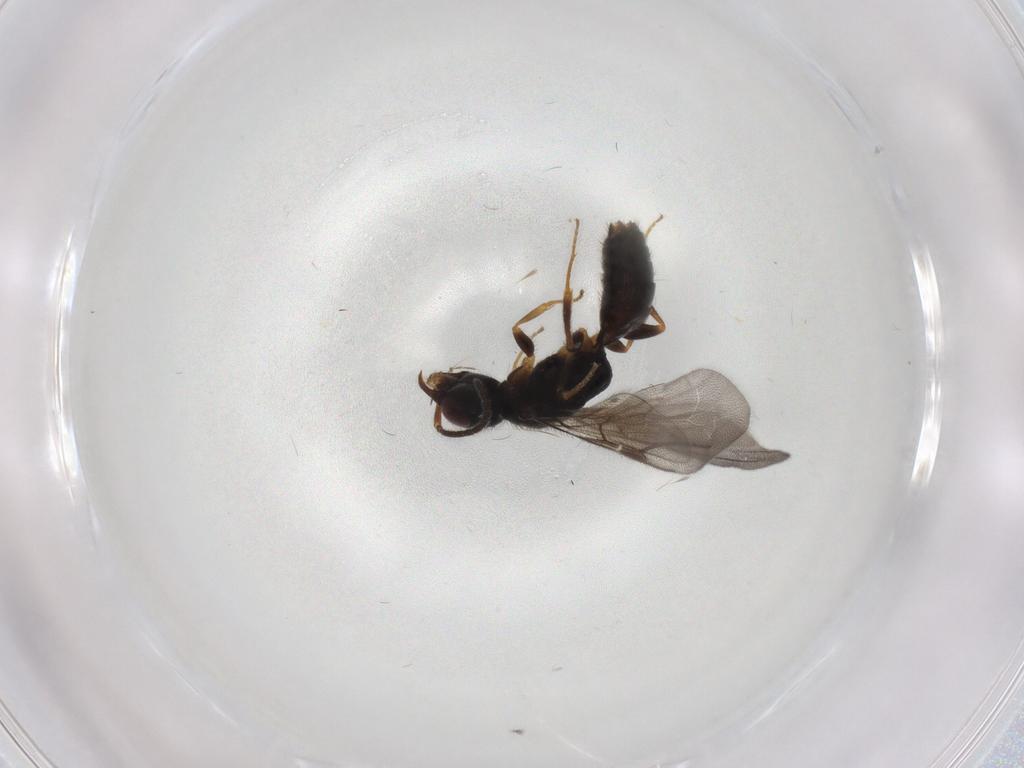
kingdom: Animalia
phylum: Arthropoda
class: Insecta
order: Hymenoptera
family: Bethylidae
